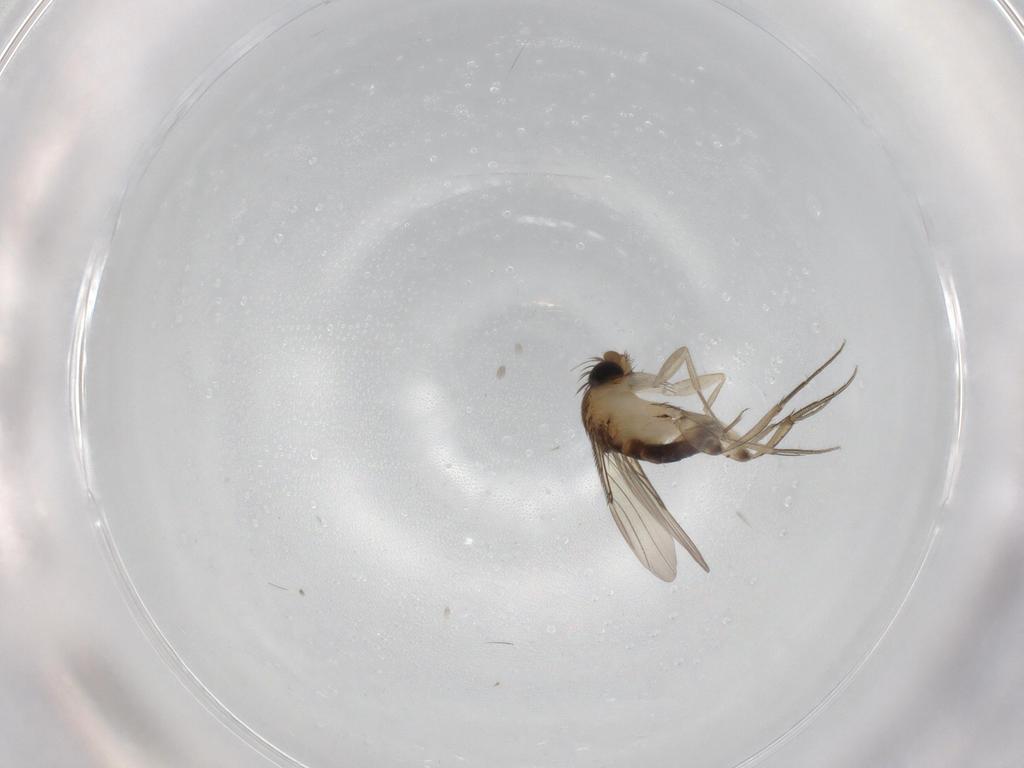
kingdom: Animalia
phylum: Arthropoda
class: Insecta
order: Diptera
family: Phoridae
